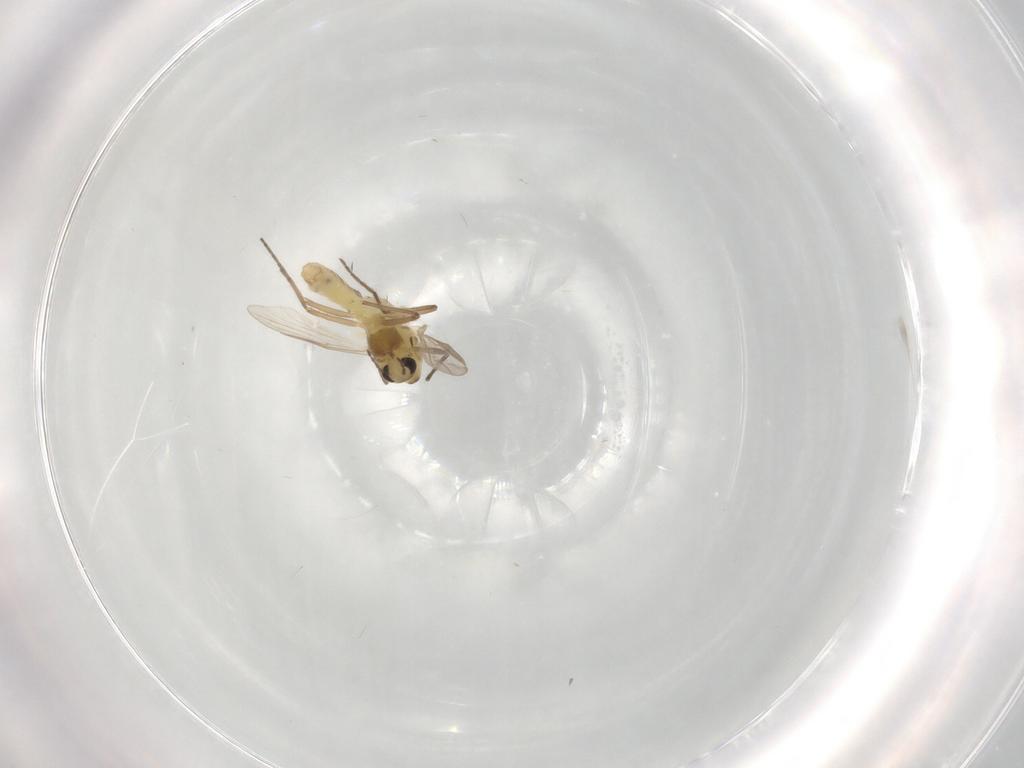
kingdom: Animalia
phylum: Arthropoda
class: Insecta
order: Diptera
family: Chironomidae
